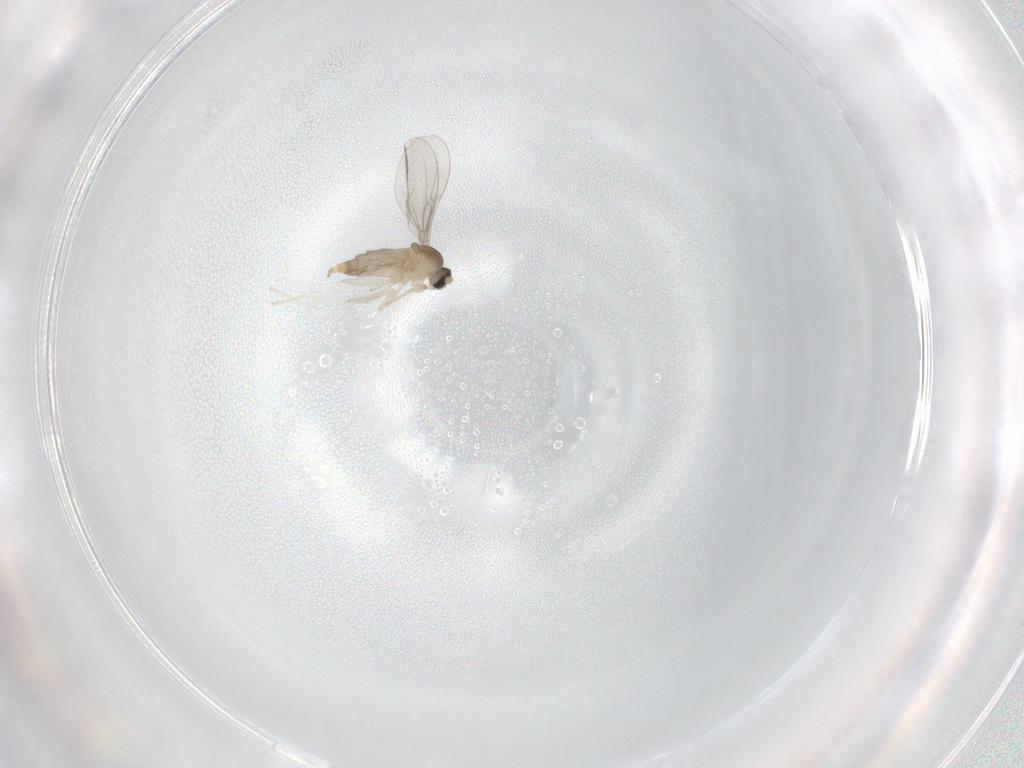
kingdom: Animalia
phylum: Arthropoda
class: Insecta
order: Diptera
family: Cecidomyiidae
